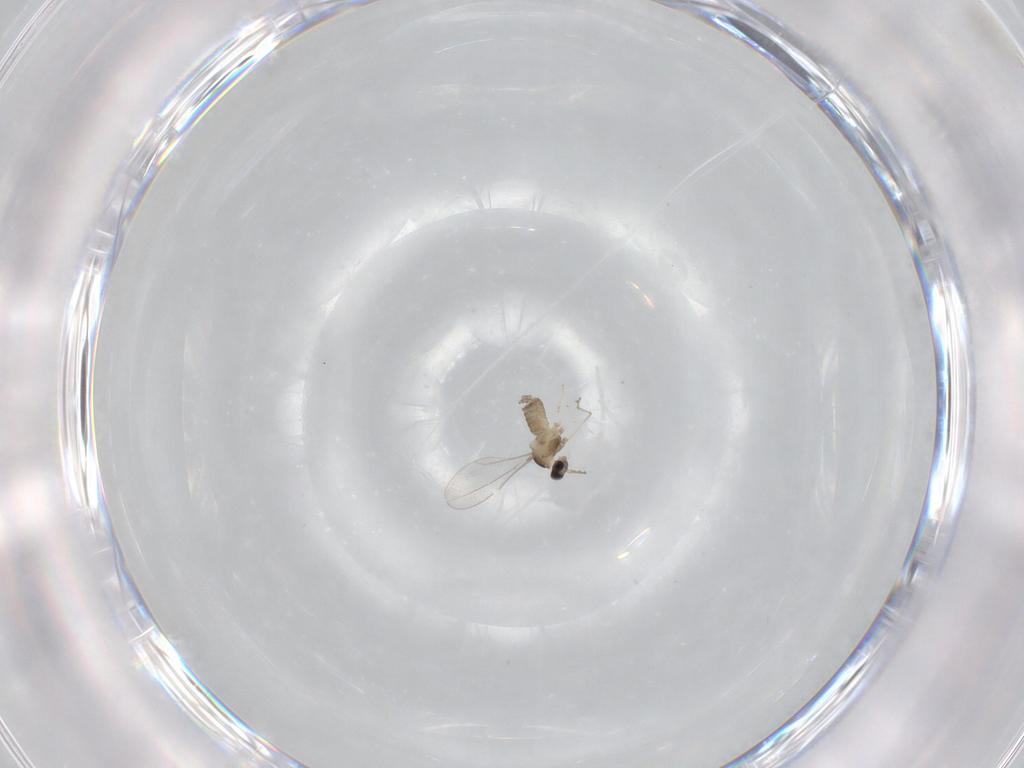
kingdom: Animalia
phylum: Arthropoda
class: Insecta
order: Diptera
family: Cecidomyiidae
